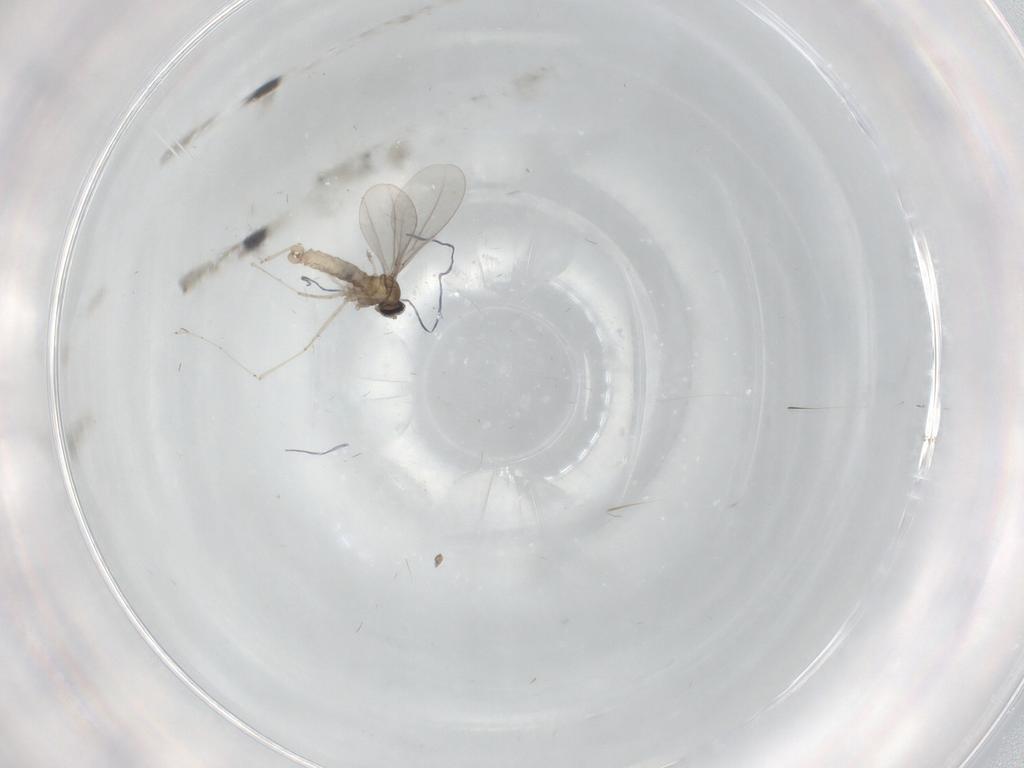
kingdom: Animalia
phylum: Arthropoda
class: Insecta
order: Diptera
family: Cecidomyiidae
